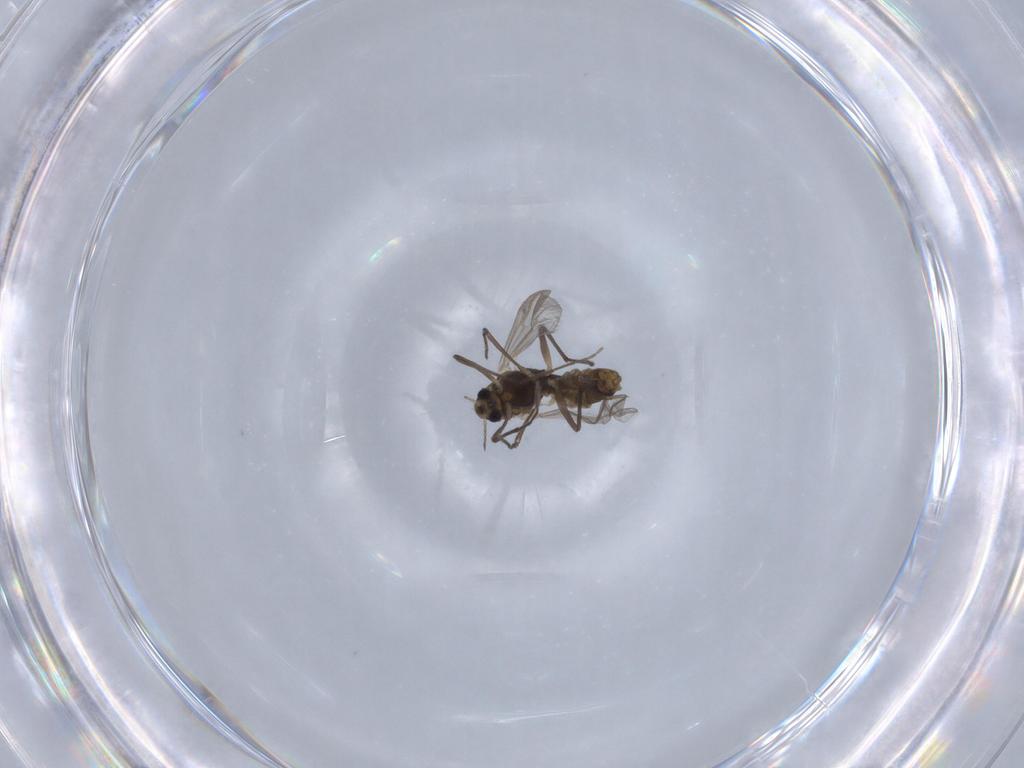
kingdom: Animalia
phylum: Arthropoda
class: Insecta
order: Diptera
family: Chironomidae
